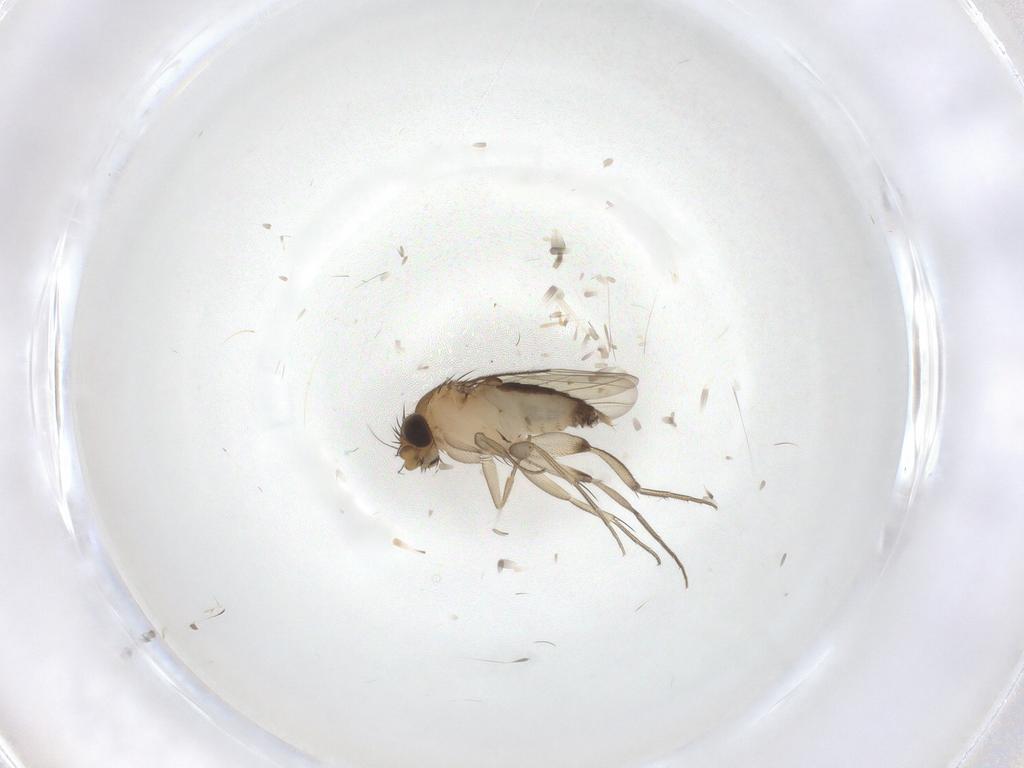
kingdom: Animalia
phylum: Arthropoda
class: Insecta
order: Diptera
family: Phoridae
